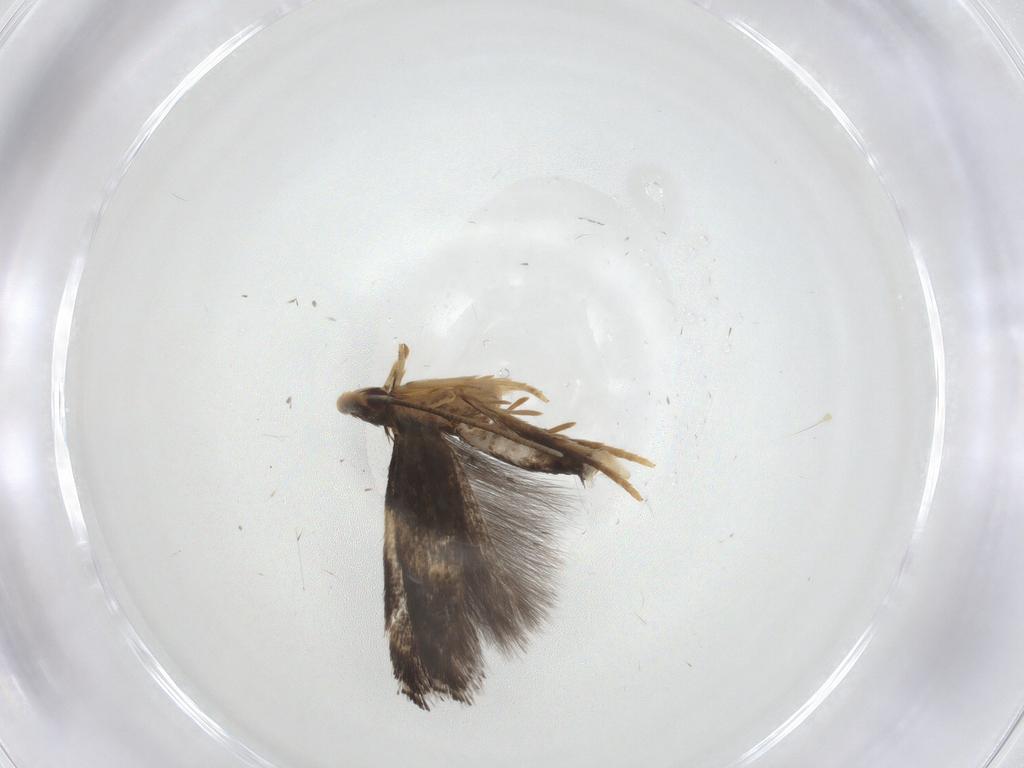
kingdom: Animalia
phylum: Arthropoda
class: Insecta
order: Lepidoptera
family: Gelechiidae
